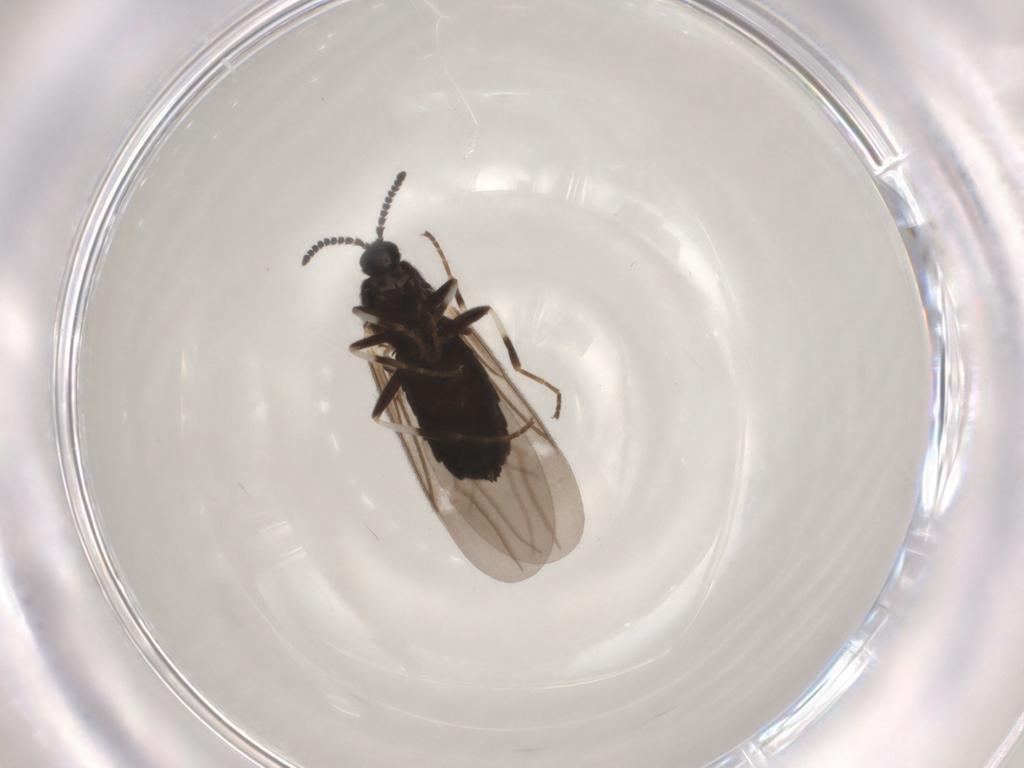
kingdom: Animalia
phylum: Arthropoda
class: Insecta
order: Diptera
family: Scatopsidae
